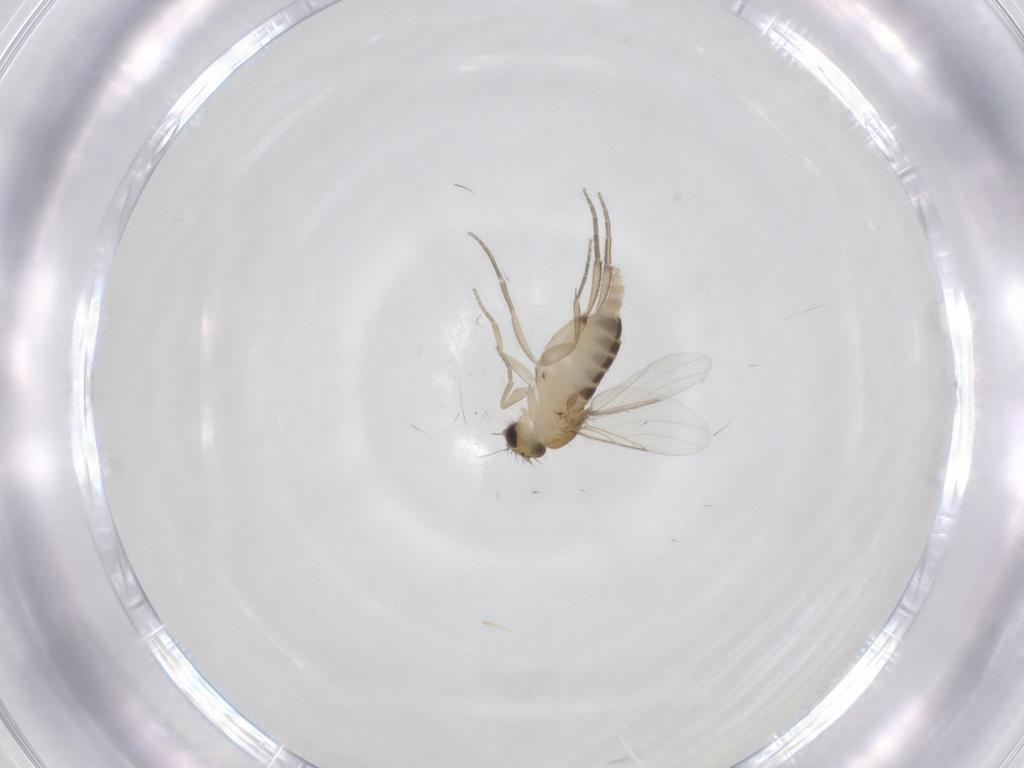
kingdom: Animalia
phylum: Arthropoda
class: Insecta
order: Diptera
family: Phoridae
